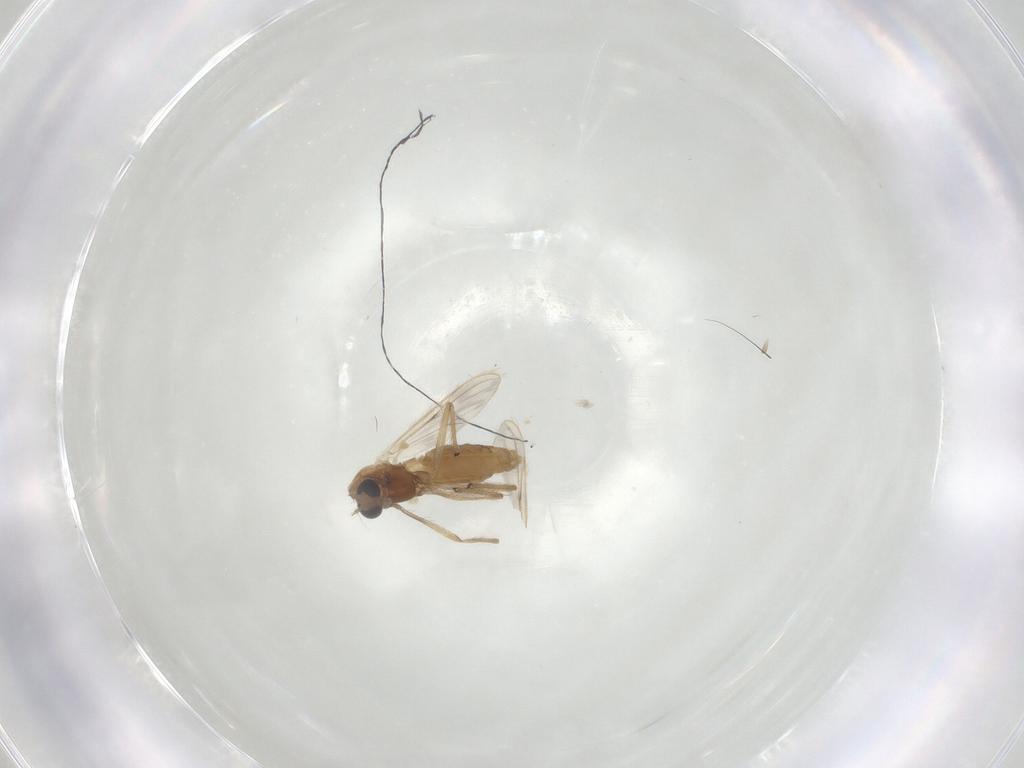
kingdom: Animalia
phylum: Arthropoda
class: Insecta
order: Diptera
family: Chironomidae
